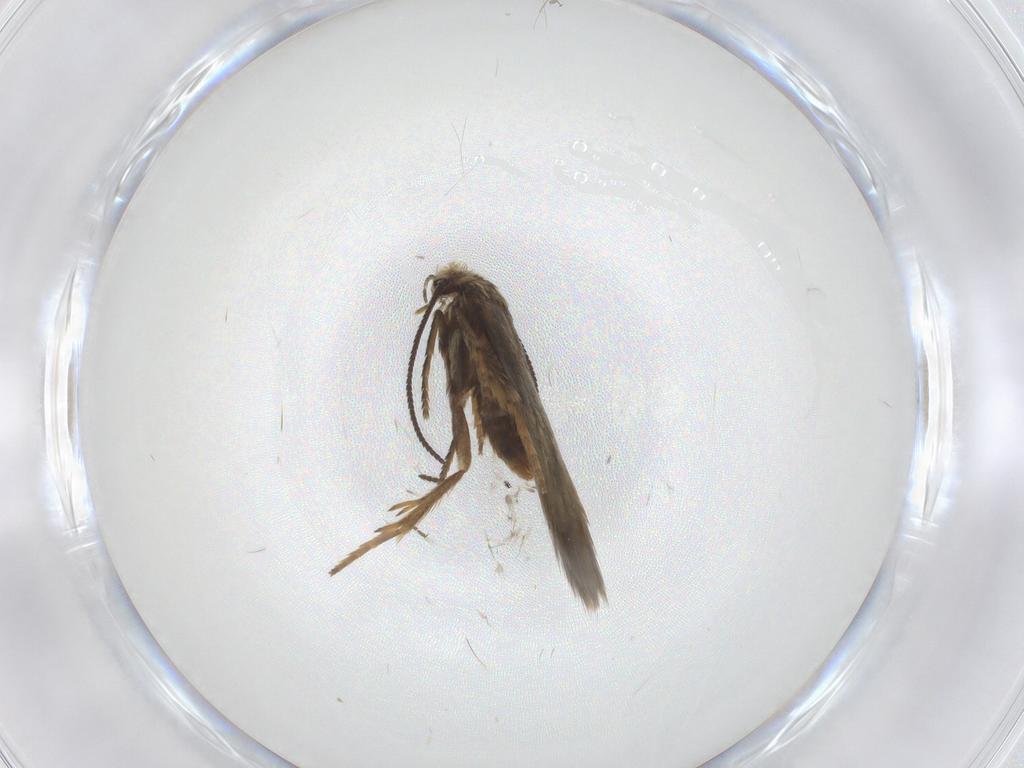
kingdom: Animalia
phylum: Arthropoda
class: Insecta
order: Lepidoptera
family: Nepticulidae
